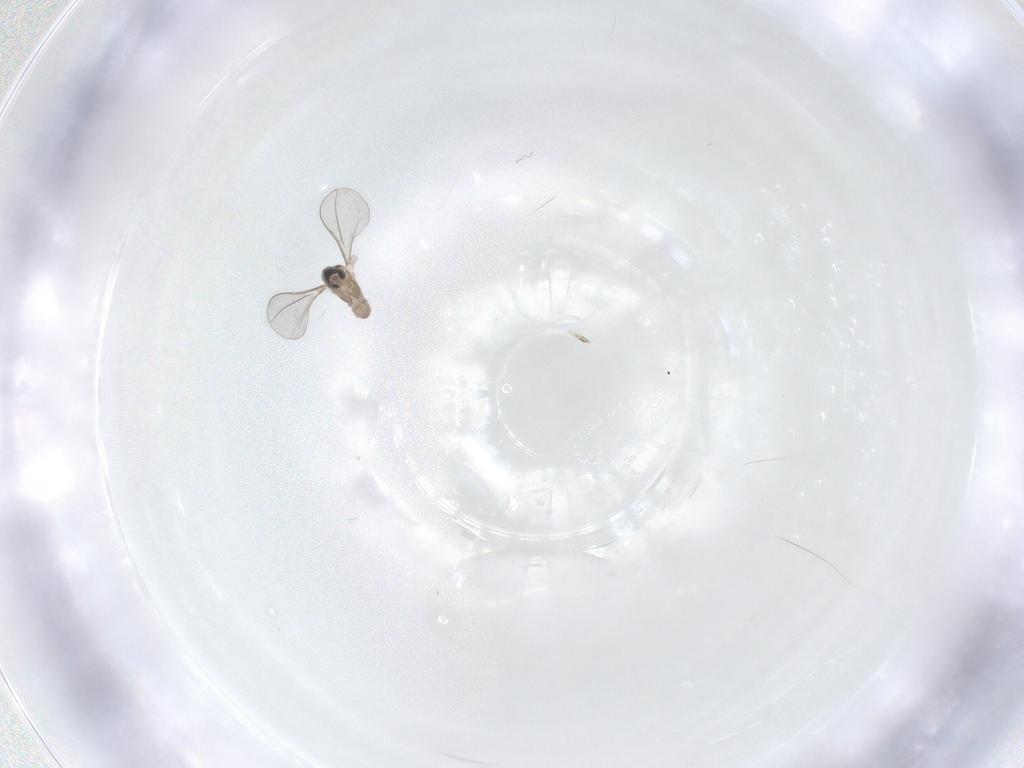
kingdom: Animalia
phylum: Arthropoda
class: Insecta
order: Diptera
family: Cecidomyiidae
